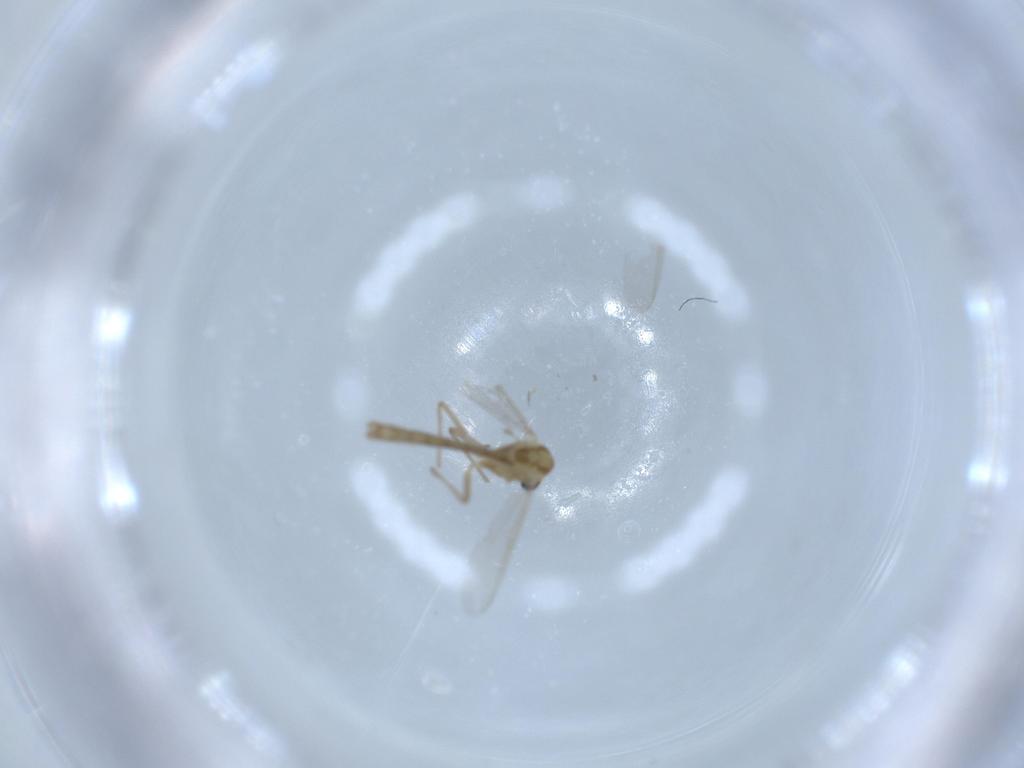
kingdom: Animalia
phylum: Arthropoda
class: Insecta
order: Diptera
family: Chironomidae
